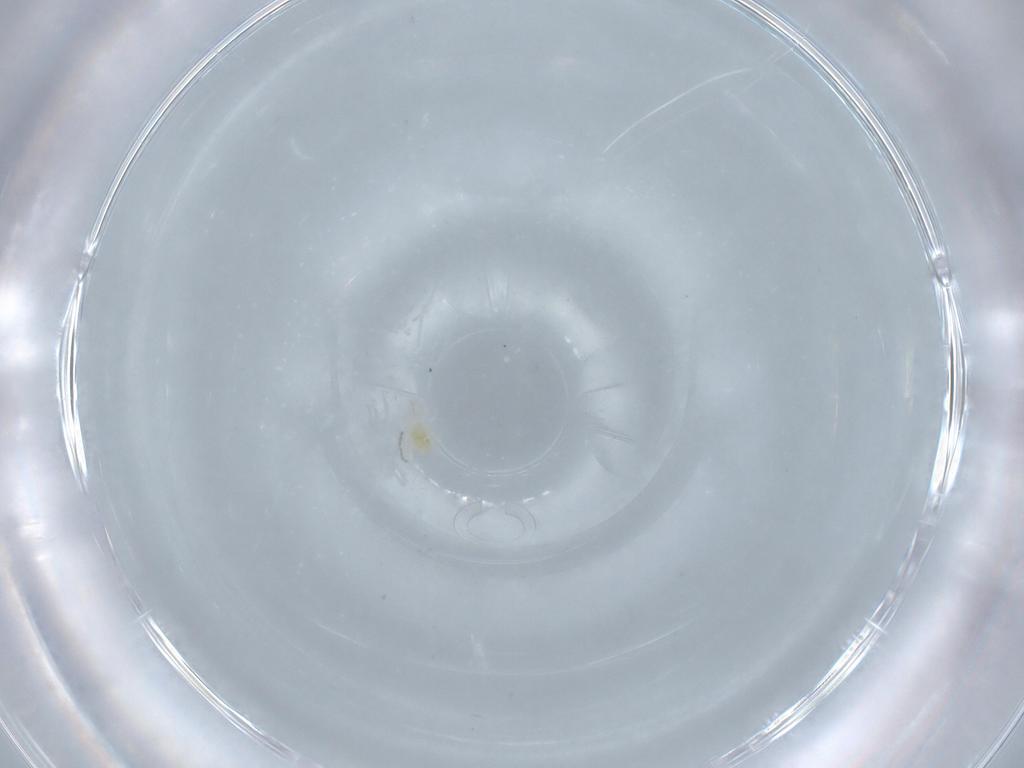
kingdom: Animalia
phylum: Arthropoda
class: Insecta
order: Diptera
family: Cecidomyiidae
